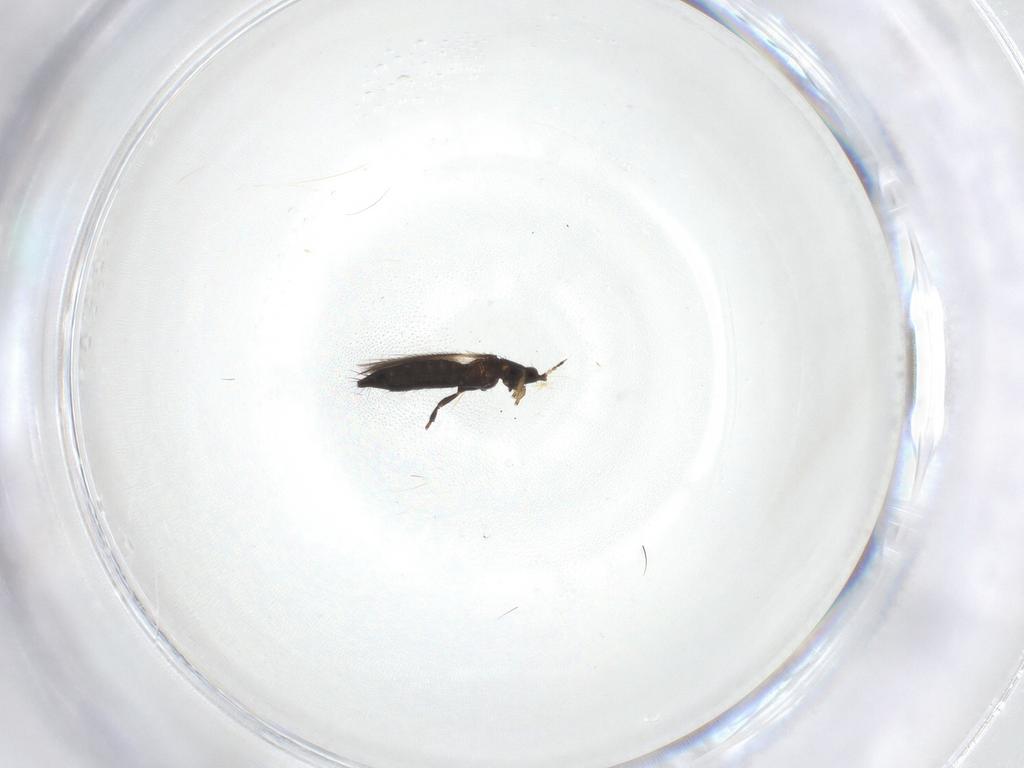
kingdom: Animalia
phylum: Arthropoda
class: Insecta
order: Thysanoptera
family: Thripidae
